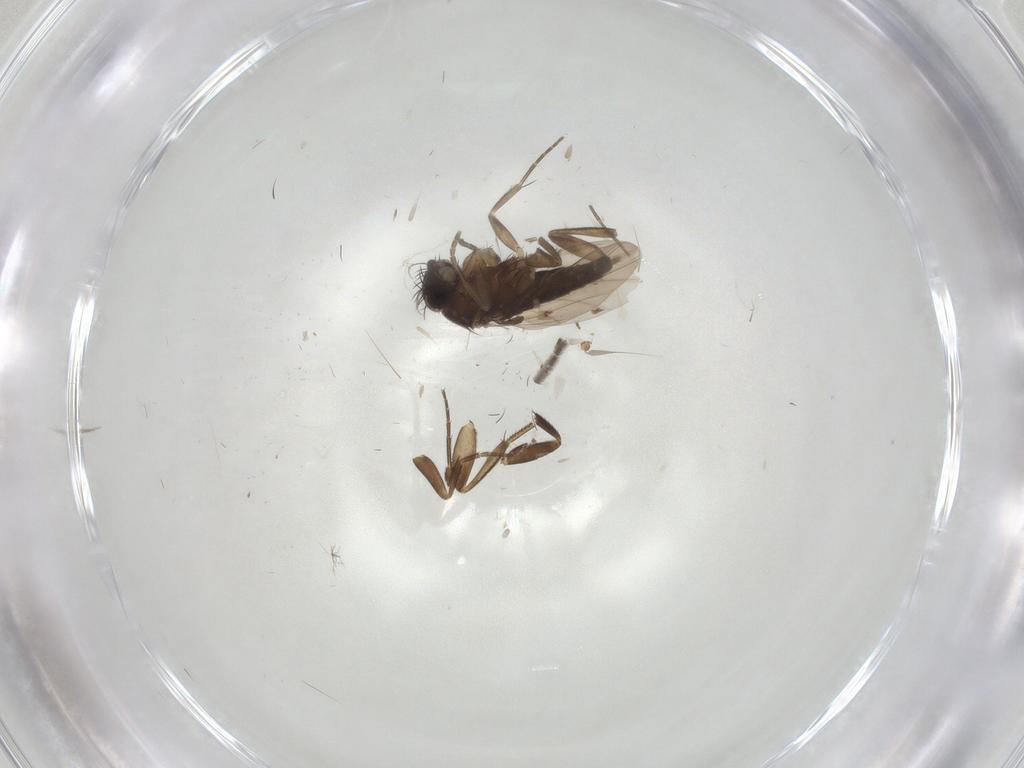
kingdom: Animalia
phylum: Arthropoda
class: Insecta
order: Diptera
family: Phoridae
